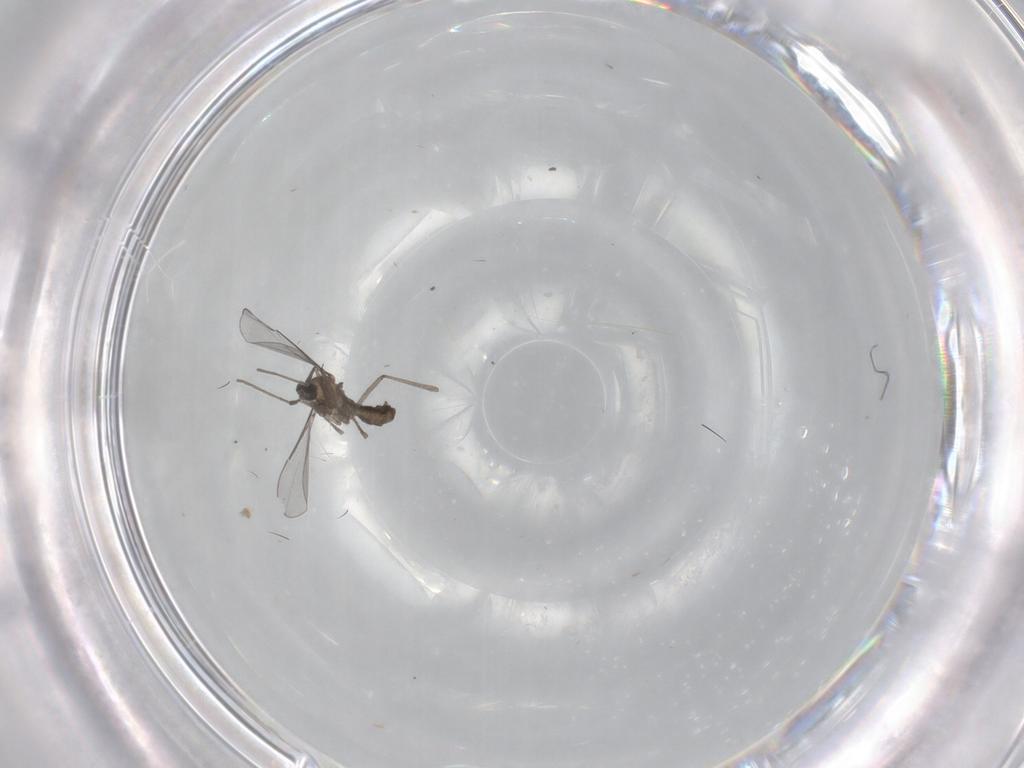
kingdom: Animalia
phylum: Arthropoda
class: Insecta
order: Diptera
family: Cecidomyiidae
